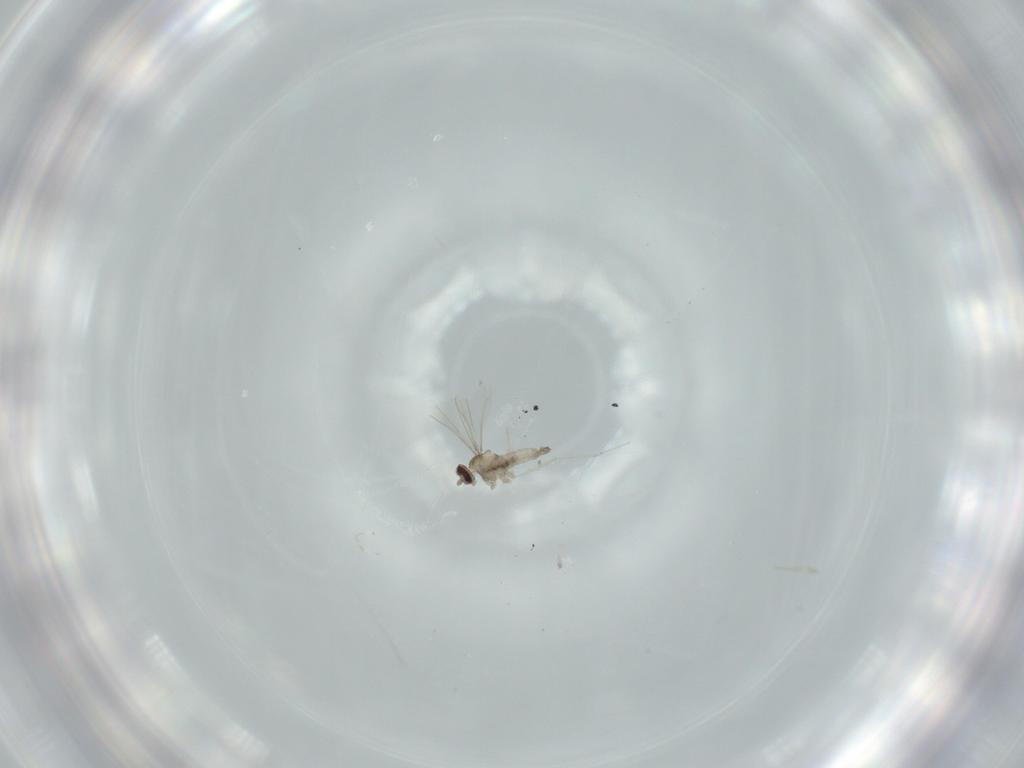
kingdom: Animalia
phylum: Arthropoda
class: Insecta
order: Diptera
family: Cecidomyiidae
